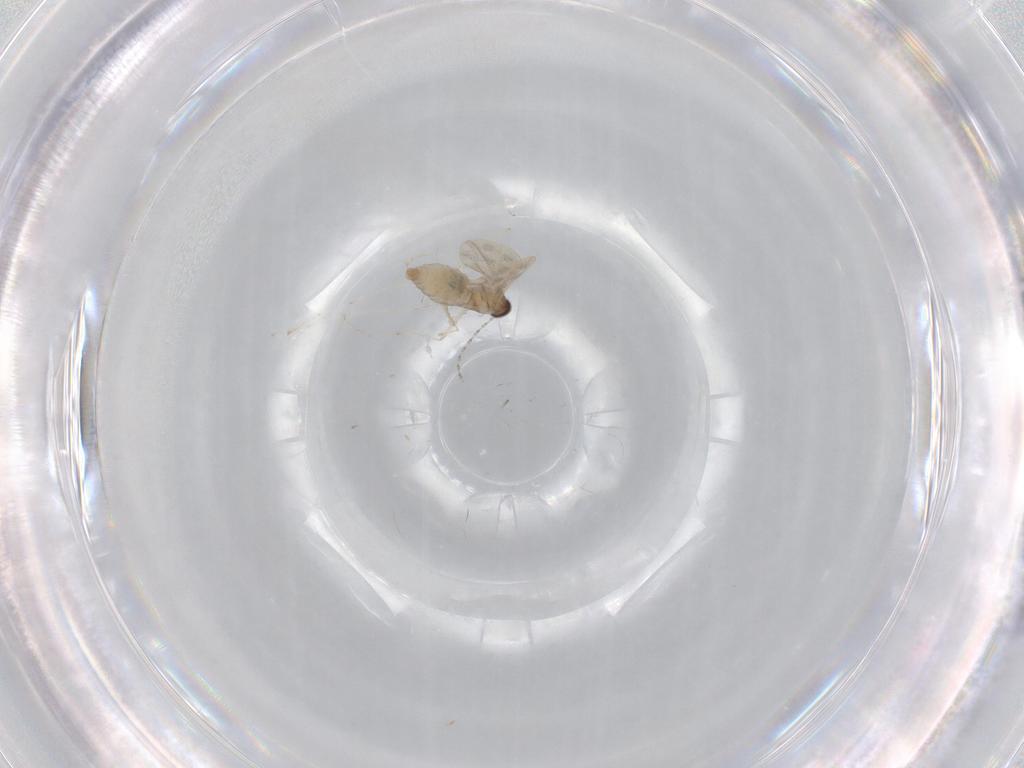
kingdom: Animalia
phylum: Arthropoda
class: Insecta
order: Diptera
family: Cecidomyiidae
